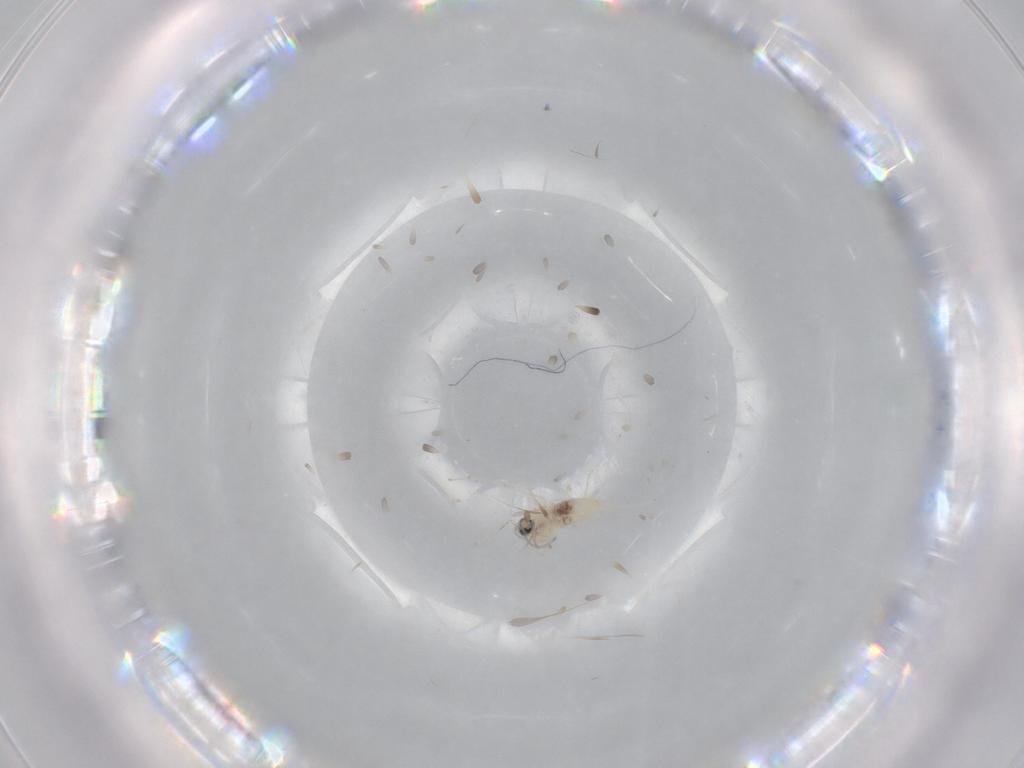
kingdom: Animalia
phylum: Arthropoda
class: Insecta
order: Diptera
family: Cecidomyiidae
